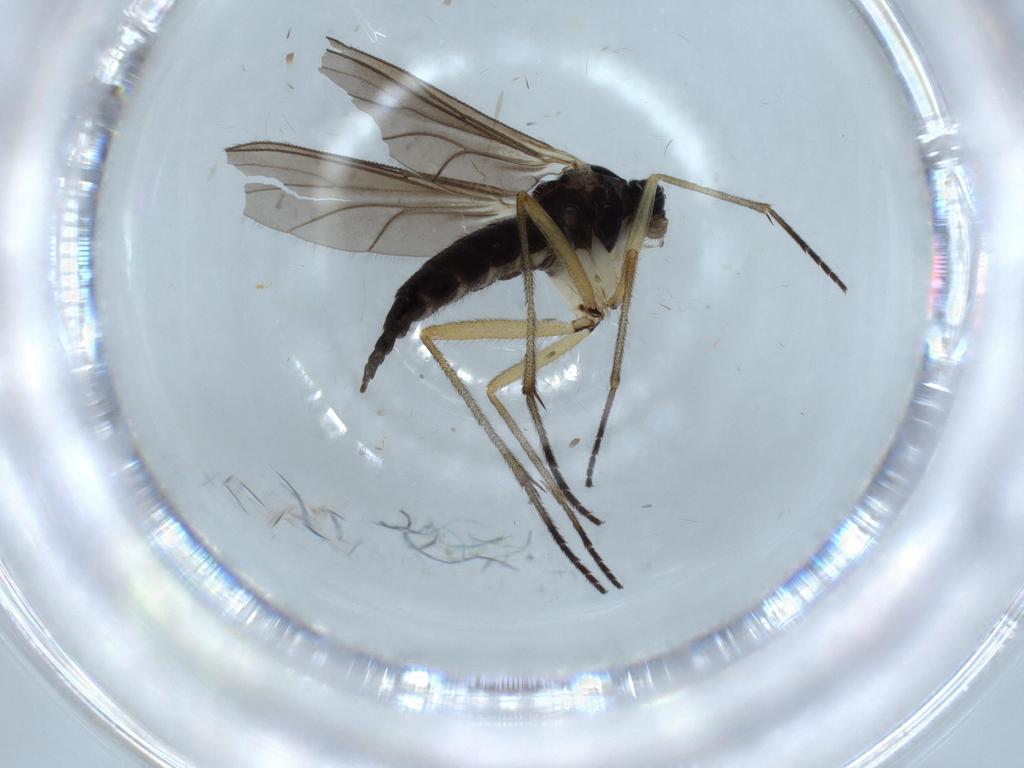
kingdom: Animalia
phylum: Arthropoda
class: Insecta
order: Diptera
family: Sciaridae
